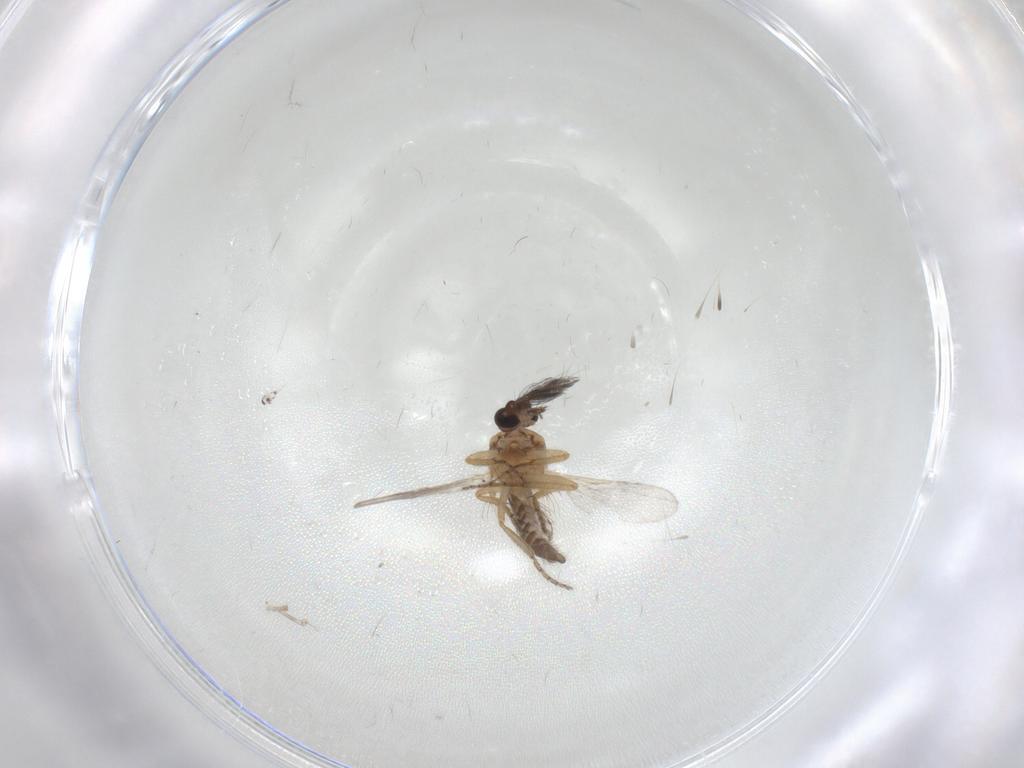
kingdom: Animalia
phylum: Arthropoda
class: Insecta
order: Diptera
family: Ceratopogonidae
